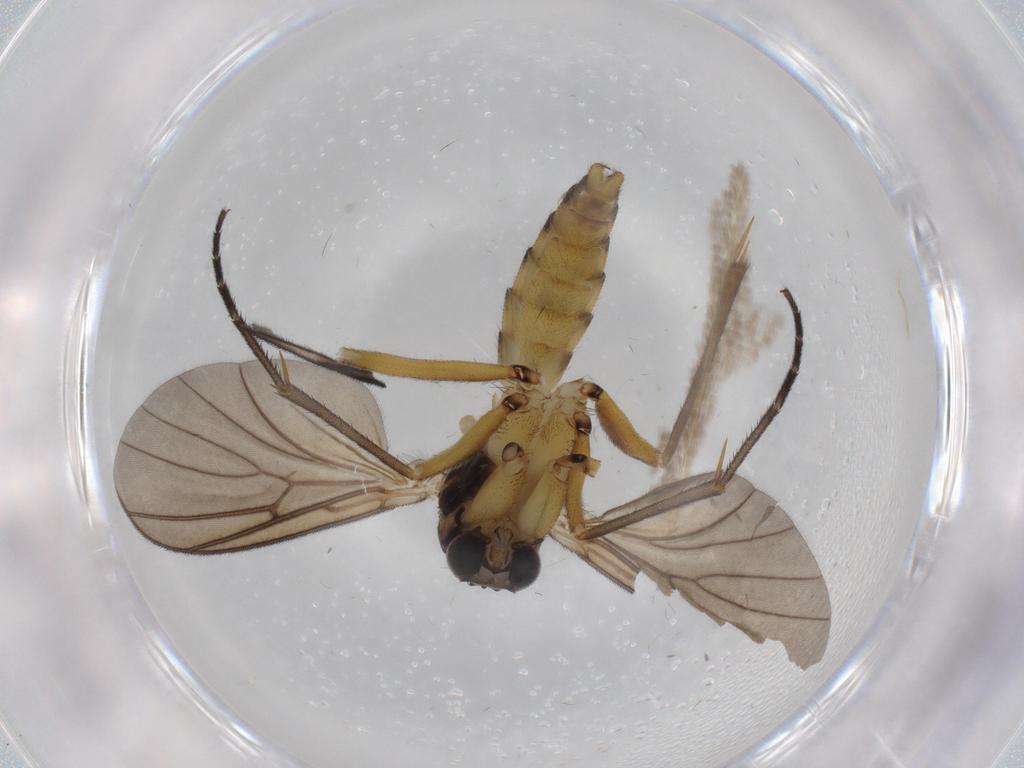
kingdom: Animalia
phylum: Arthropoda
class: Insecta
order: Diptera
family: Mycetophilidae
